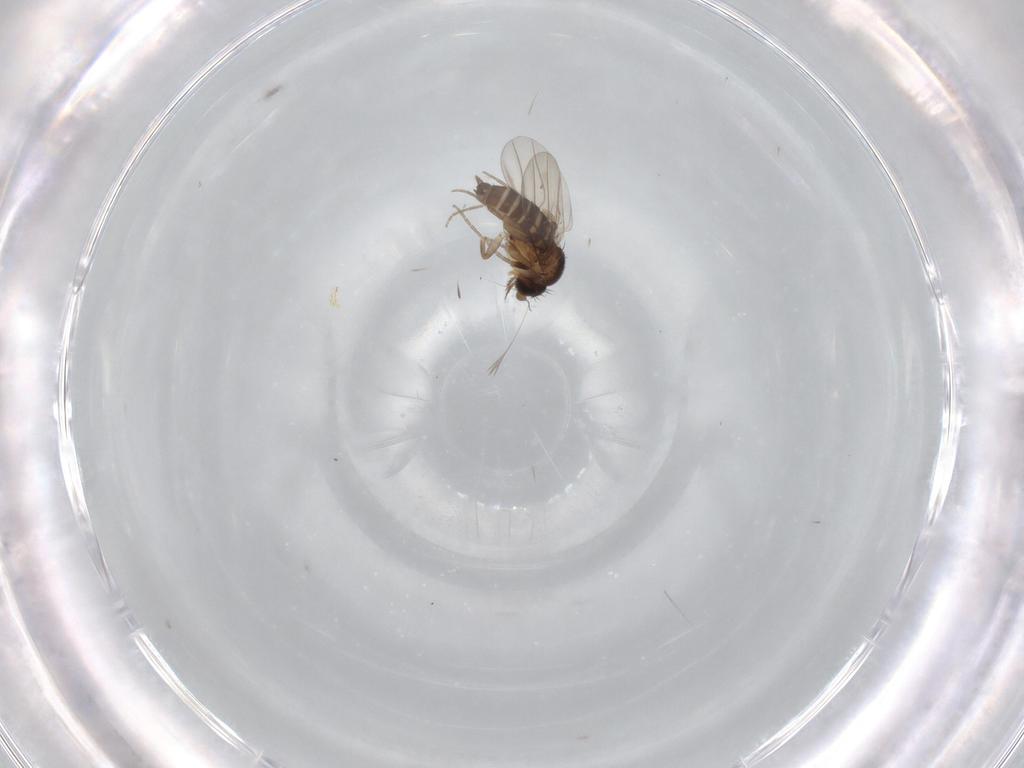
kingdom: Animalia
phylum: Arthropoda
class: Insecta
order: Diptera
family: Phoridae
